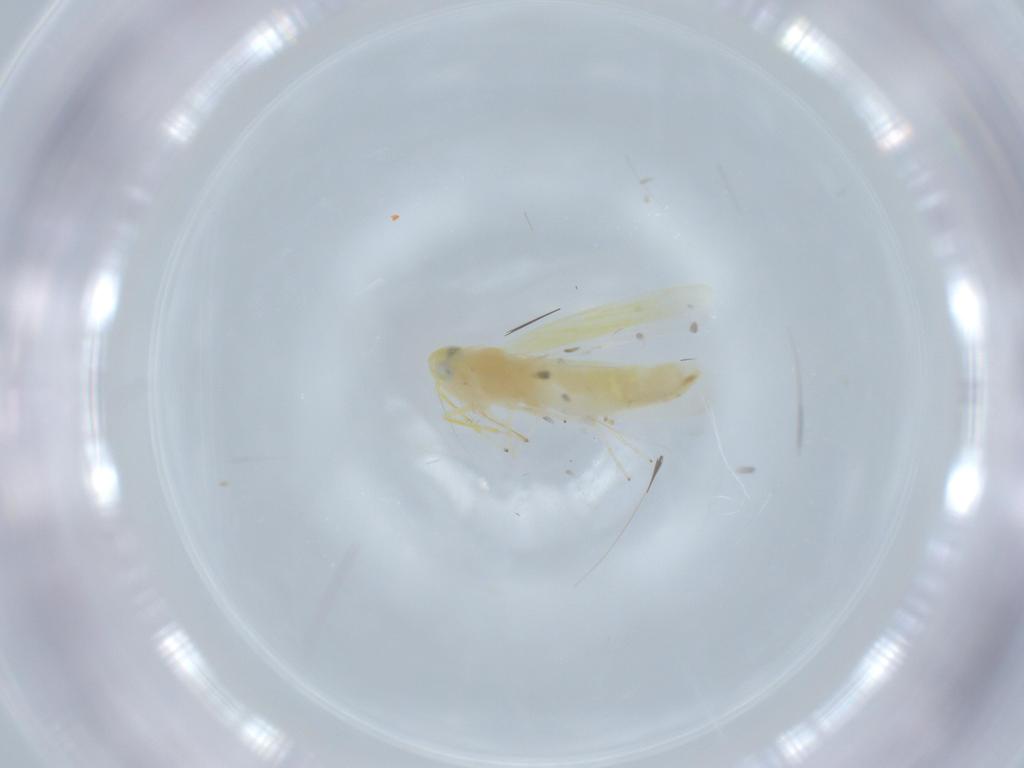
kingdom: Animalia
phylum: Arthropoda
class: Insecta
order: Hemiptera
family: Cicadellidae
